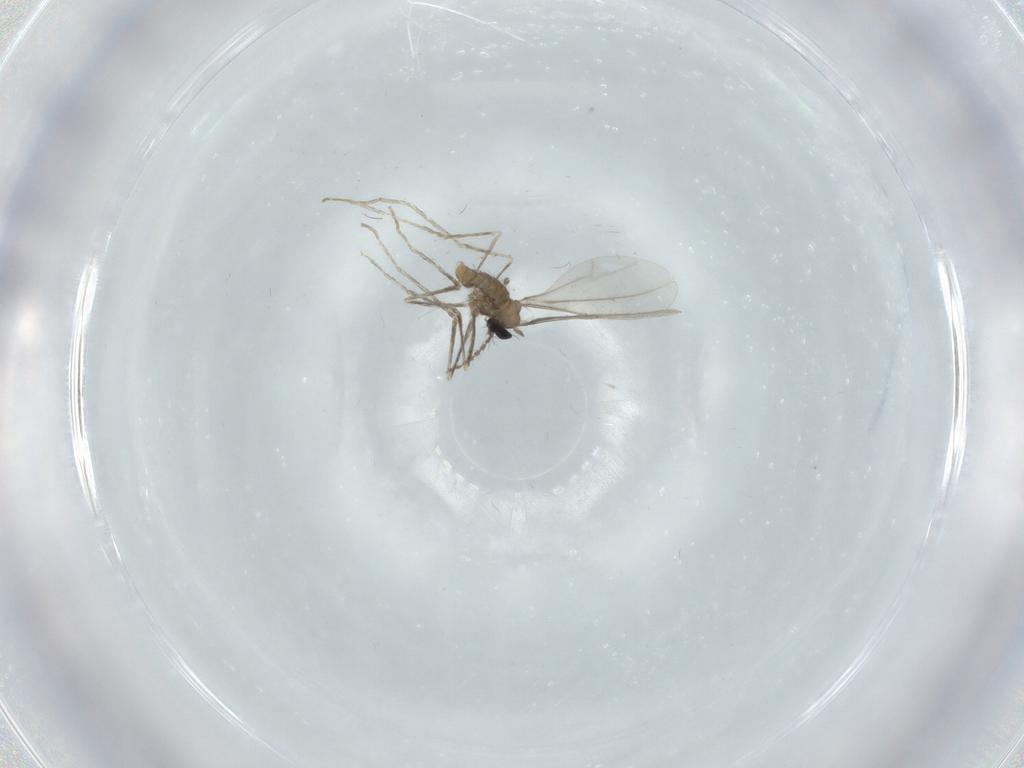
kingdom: Animalia
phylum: Arthropoda
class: Insecta
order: Diptera
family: Cecidomyiidae
